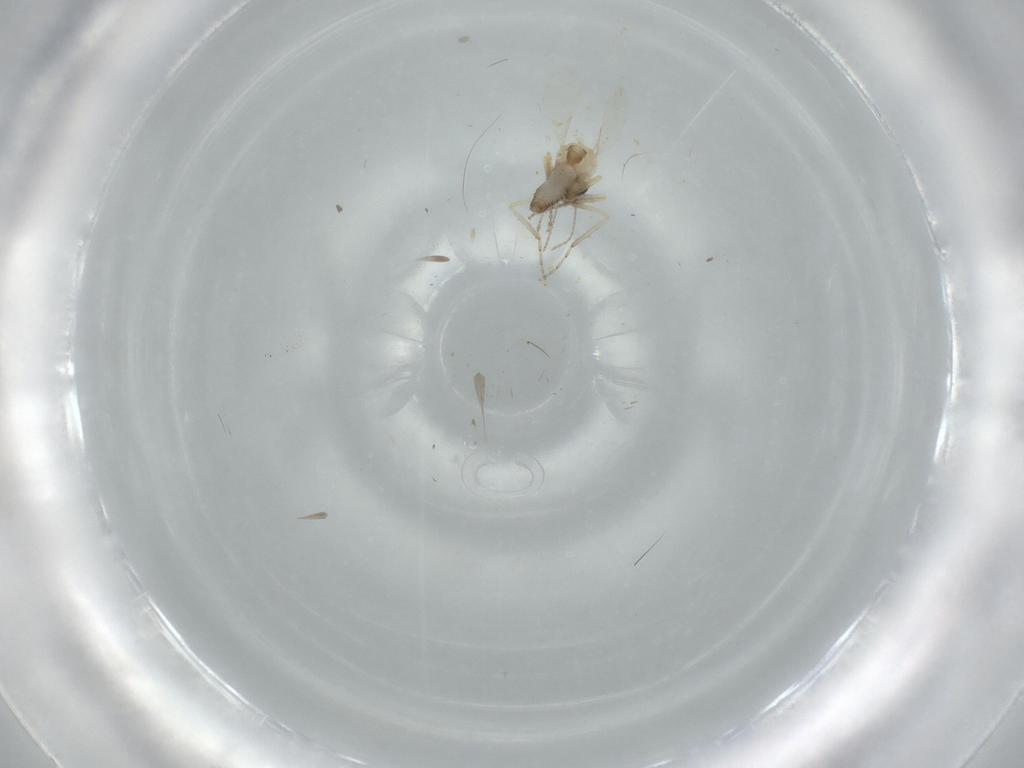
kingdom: Animalia
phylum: Arthropoda
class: Insecta
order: Diptera
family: Ceratopogonidae
